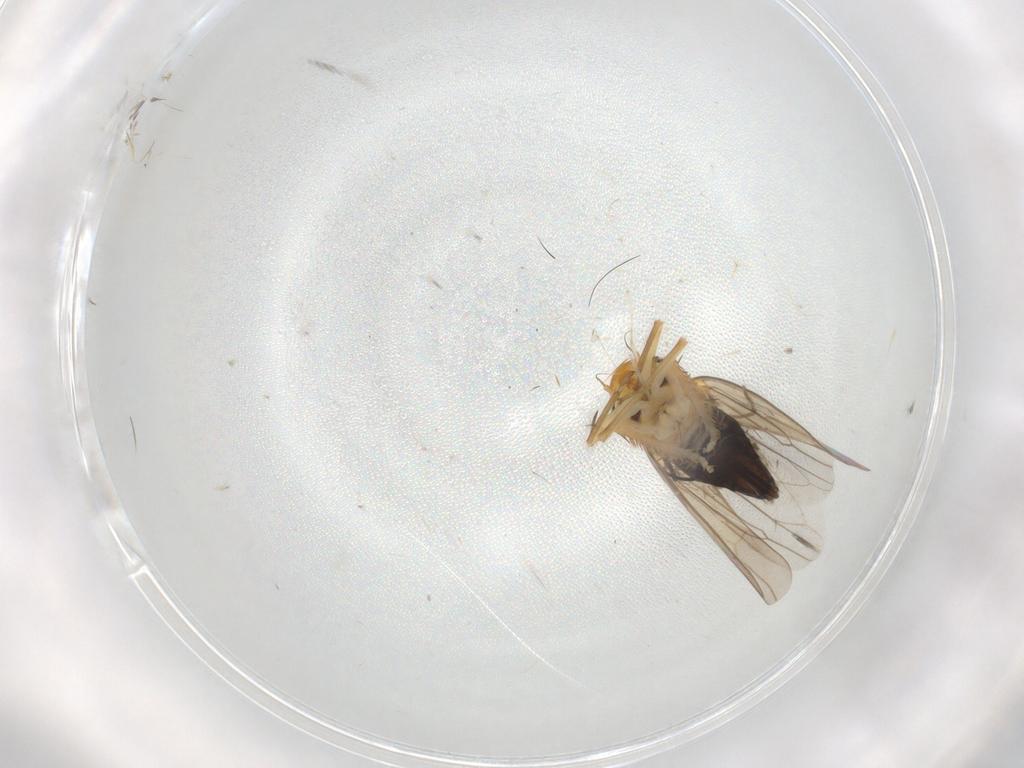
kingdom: Animalia
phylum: Arthropoda
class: Insecta
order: Hemiptera
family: Cicadellidae
